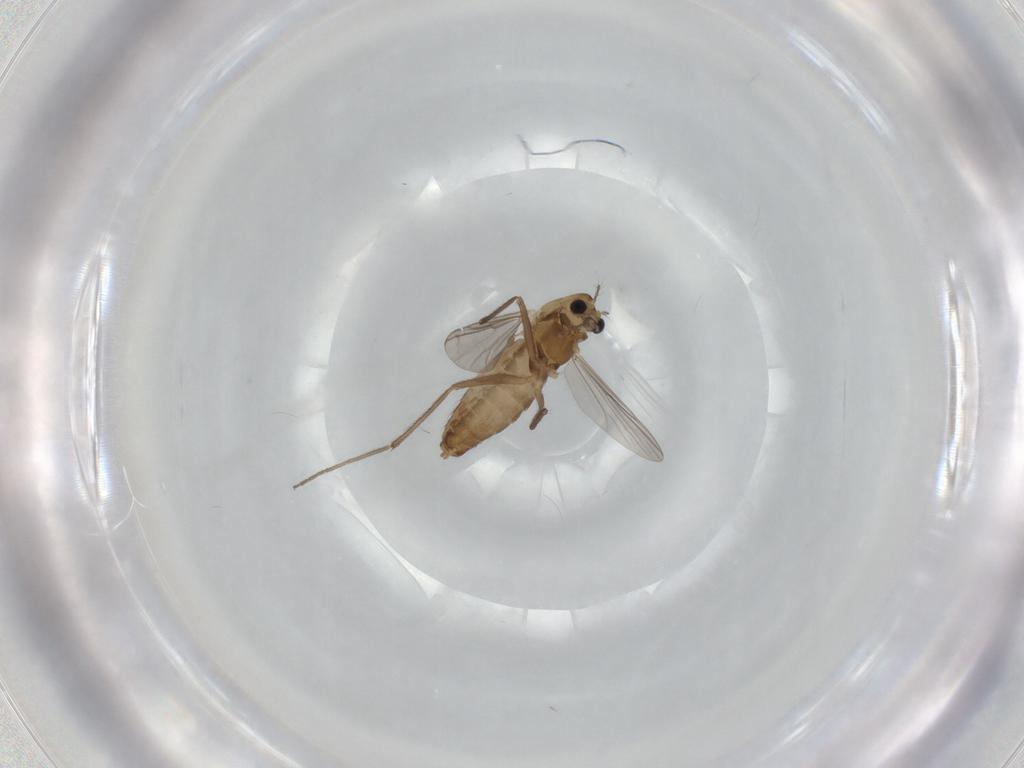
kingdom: Animalia
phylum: Arthropoda
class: Insecta
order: Diptera
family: Chironomidae
